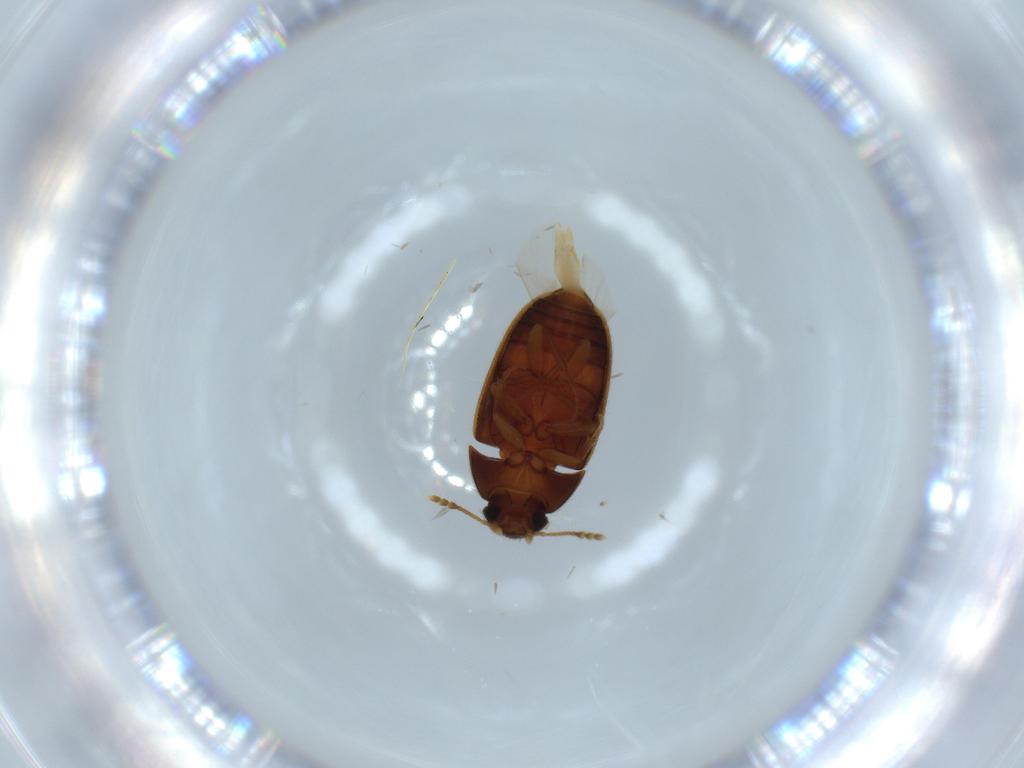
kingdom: Animalia
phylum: Arthropoda
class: Insecta
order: Coleoptera
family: Mycetophagidae
